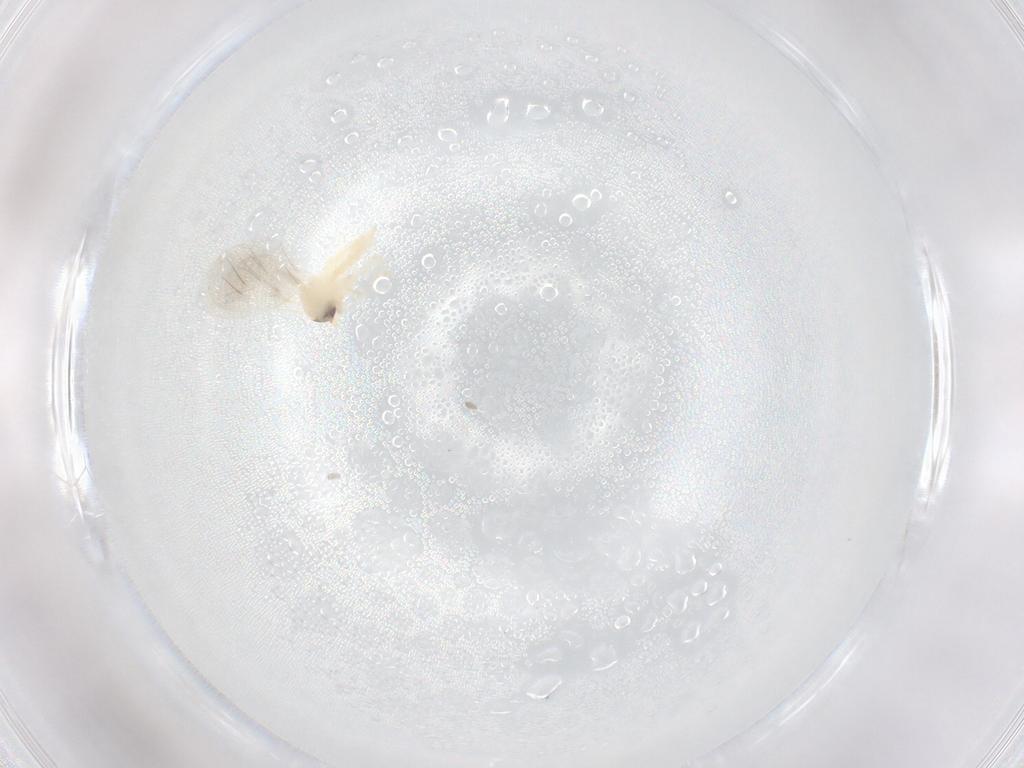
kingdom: Animalia
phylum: Arthropoda
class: Insecta
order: Hemiptera
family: Aleyrodidae
